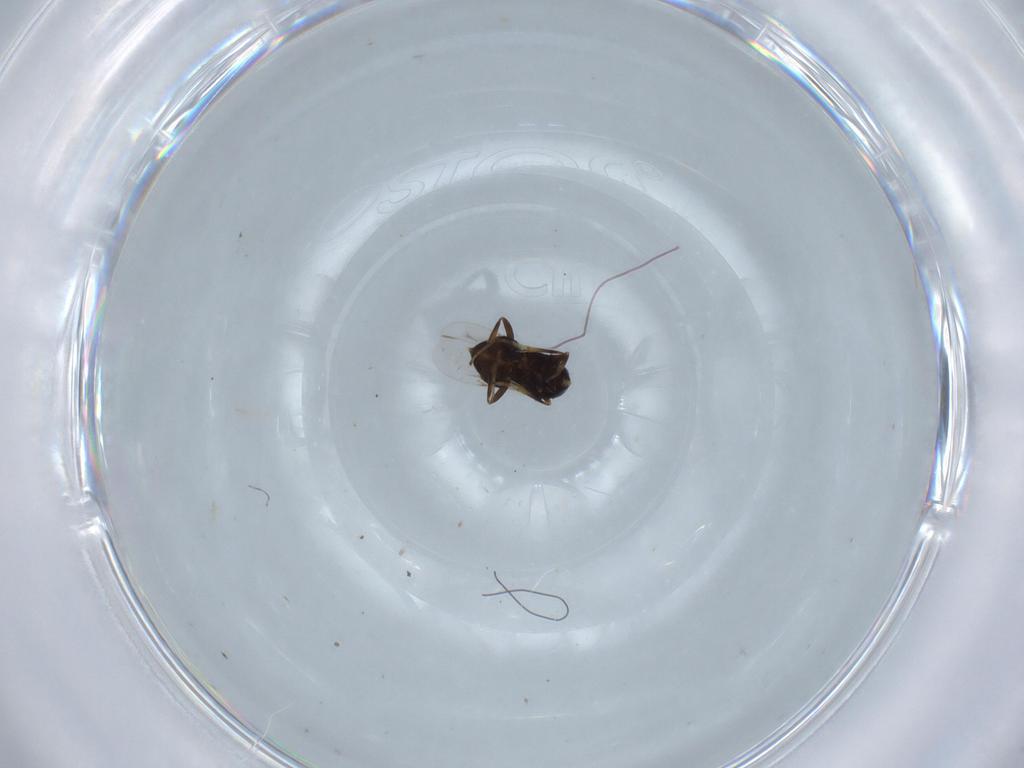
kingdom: Animalia
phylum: Arthropoda
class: Insecta
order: Hymenoptera
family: Encyrtidae
